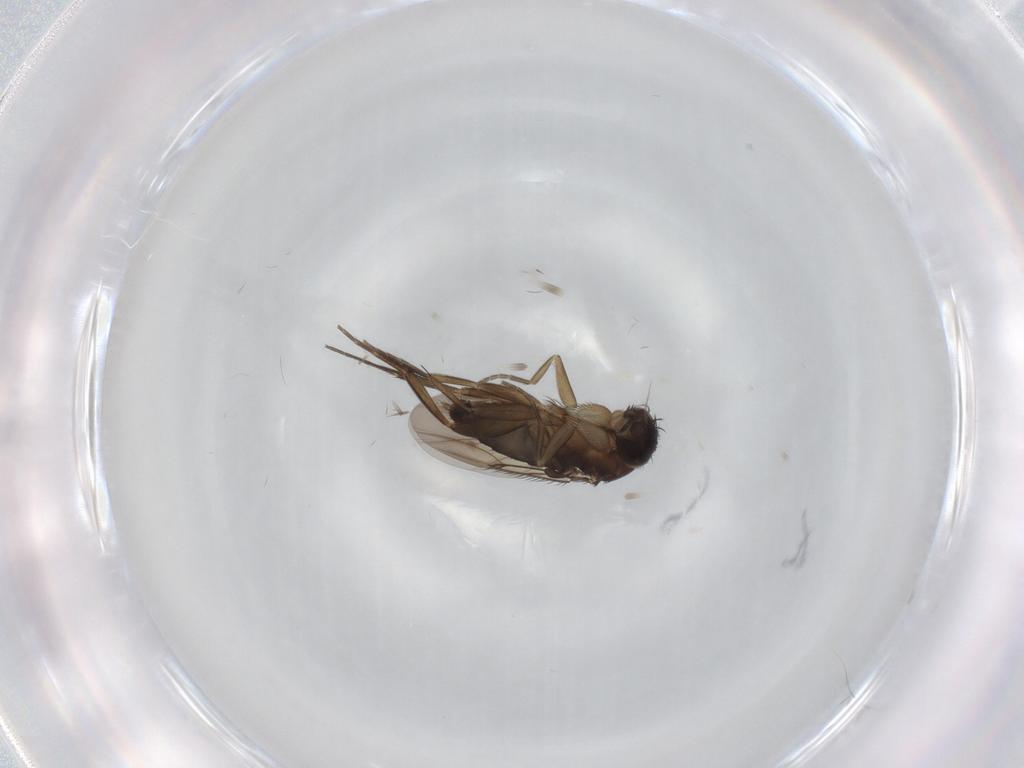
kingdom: Animalia
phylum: Arthropoda
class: Insecta
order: Diptera
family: Phoridae
